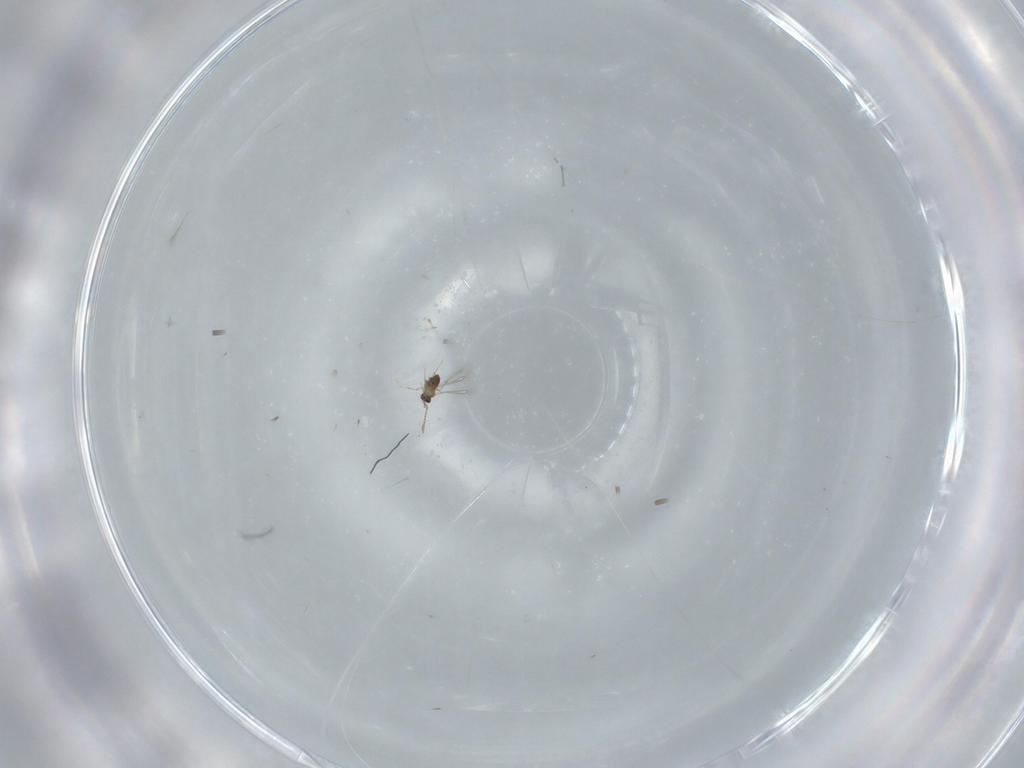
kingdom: Animalia
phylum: Arthropoda
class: Insecta
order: Hymenoptera
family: Mymaridae
